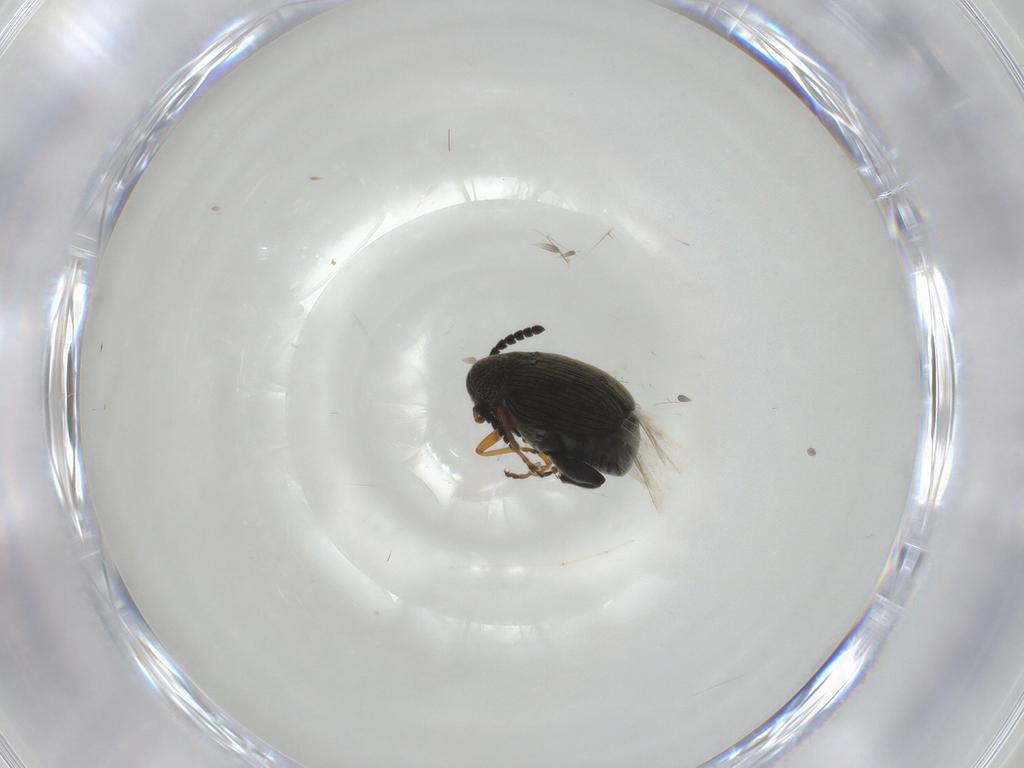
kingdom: Animalia
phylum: Arthropoda
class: Insecta
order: Coleoptera
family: Chrysomelidae
